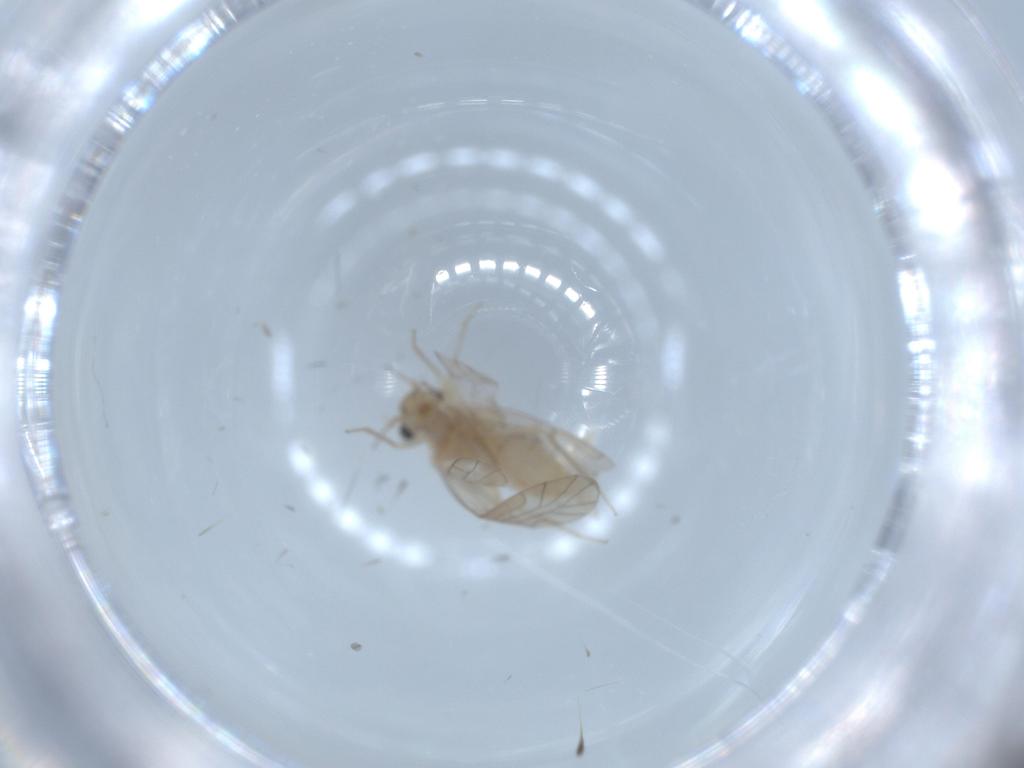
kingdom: Animalia
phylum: Arthropoda
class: Insecta
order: Psocodea
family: Lachesillidae
